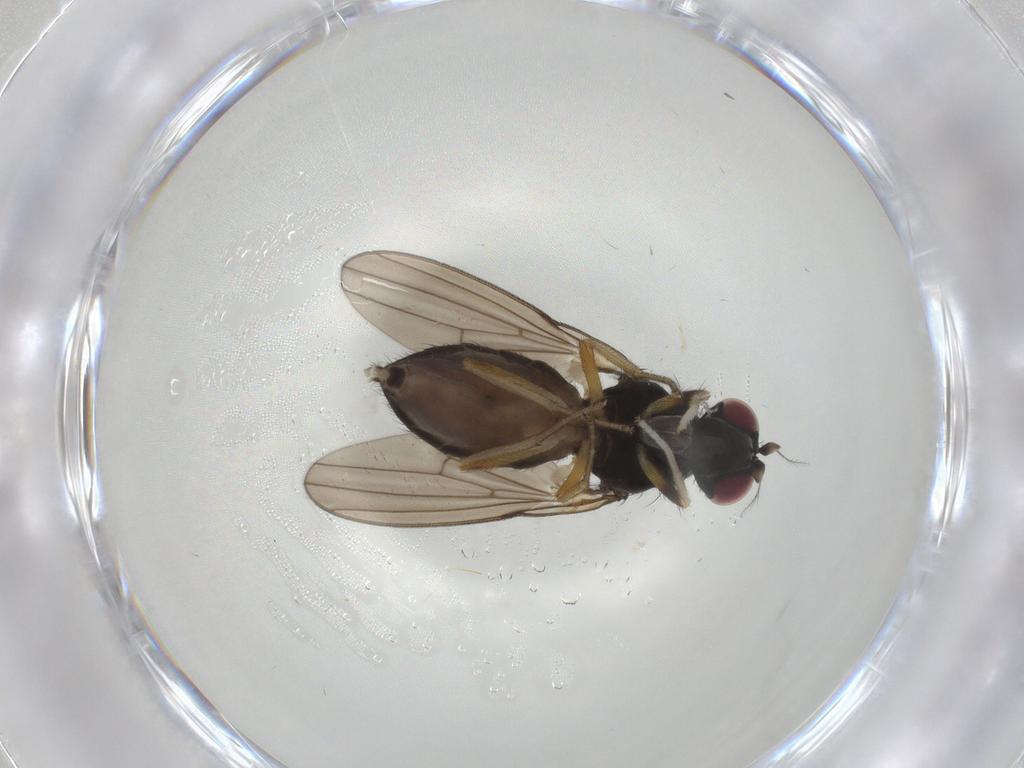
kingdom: Animalia
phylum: Arthropoda
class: Insecta
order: Diptera
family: Lauxaniidae
